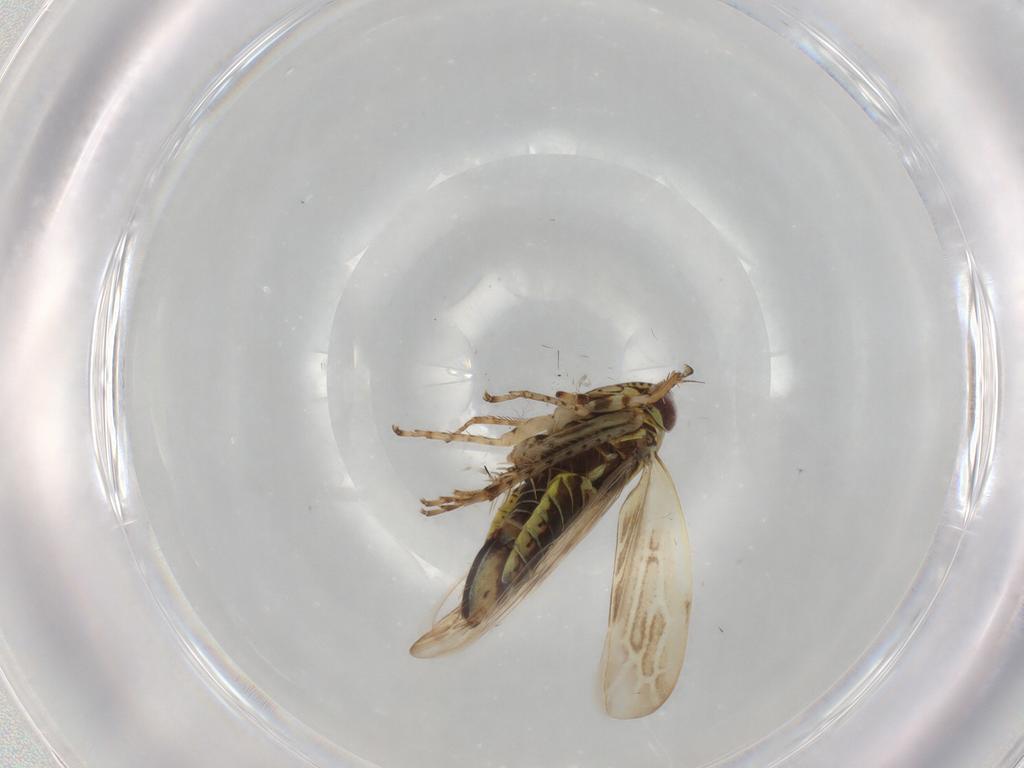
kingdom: Animalia
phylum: Arthropoda
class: Insecta
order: Hemiptera
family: Cicadellidae
